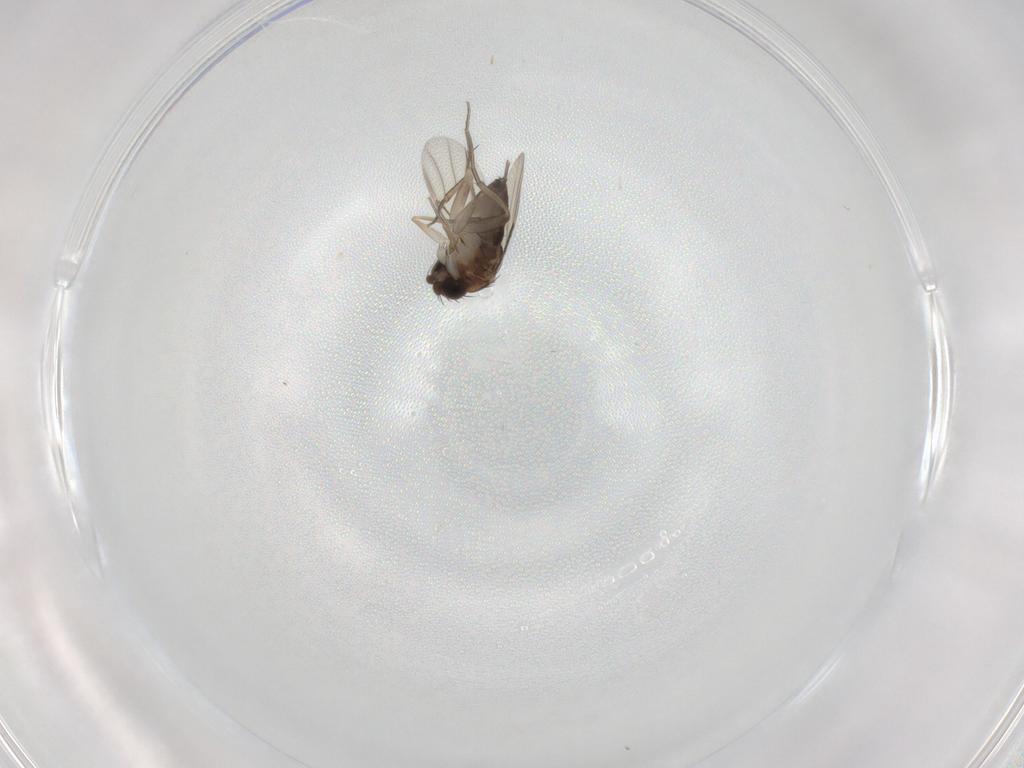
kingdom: Animalia
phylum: Arthropoda
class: Insecta
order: Diptera
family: Phoridae
